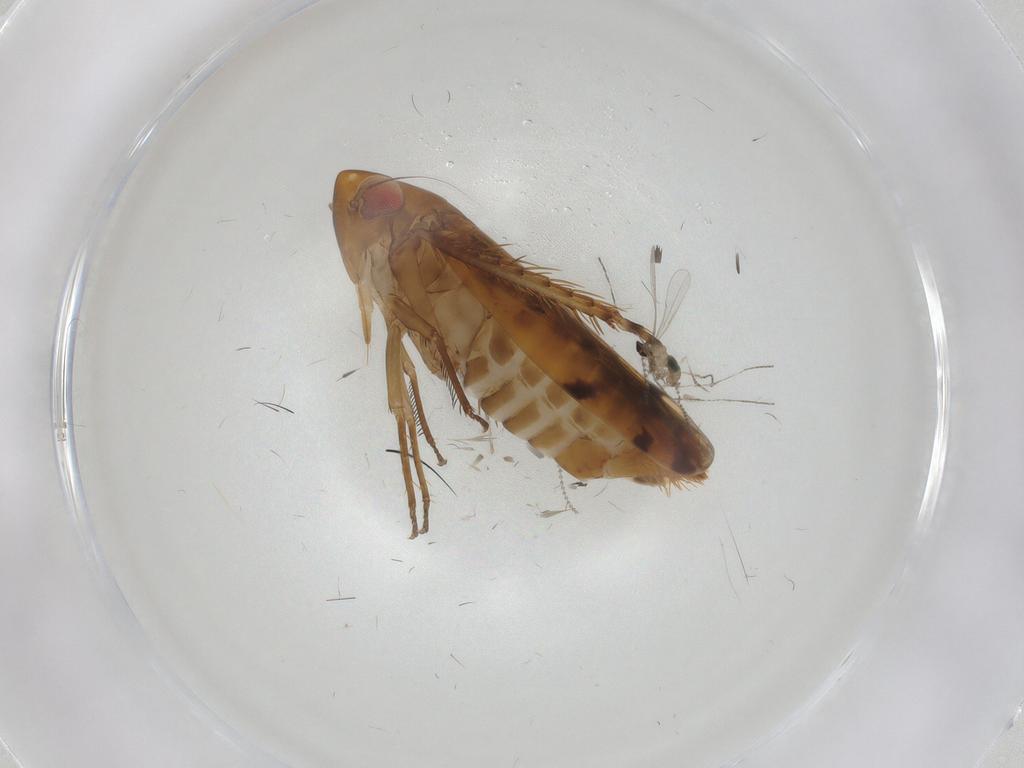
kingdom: Animalia
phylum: Arthropoda
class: Insecta
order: Diptera
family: Cecidomyiidae
